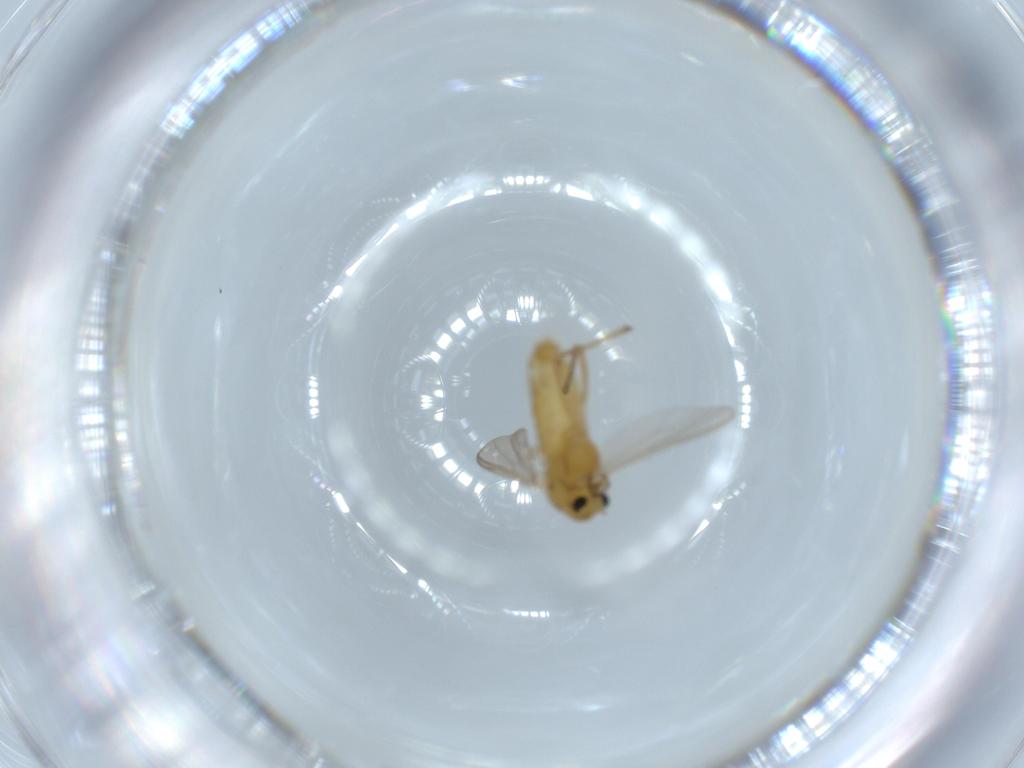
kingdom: Animalia
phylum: Arthropoda
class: Insecta
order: Diptera
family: Chironomidae
